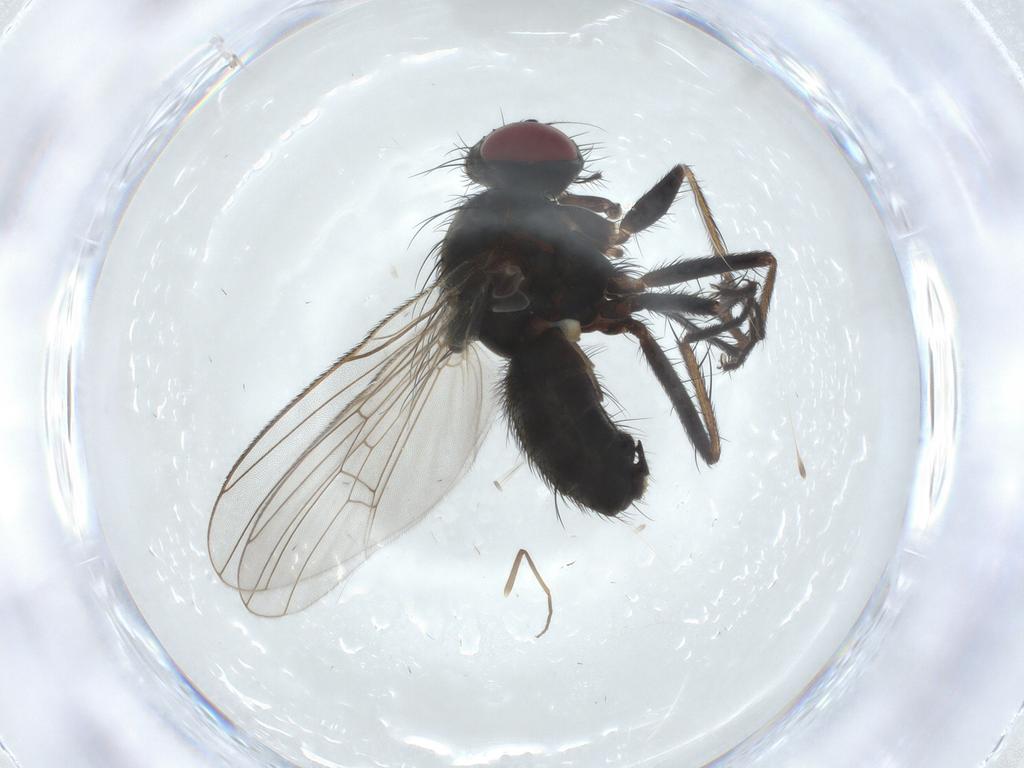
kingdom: Animalia
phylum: Arthropoda
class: Insecta
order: Diptera
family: Muscidae
